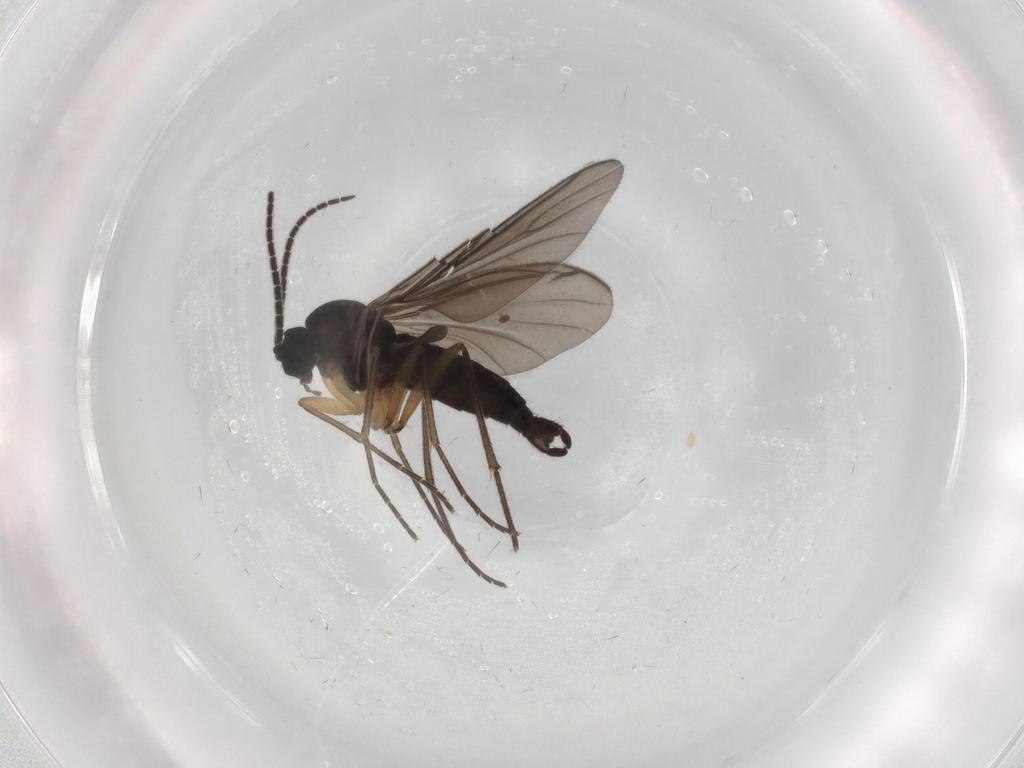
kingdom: Animalia
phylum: Arthropoda
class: Insecta
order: Diptera
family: Sciaridae
